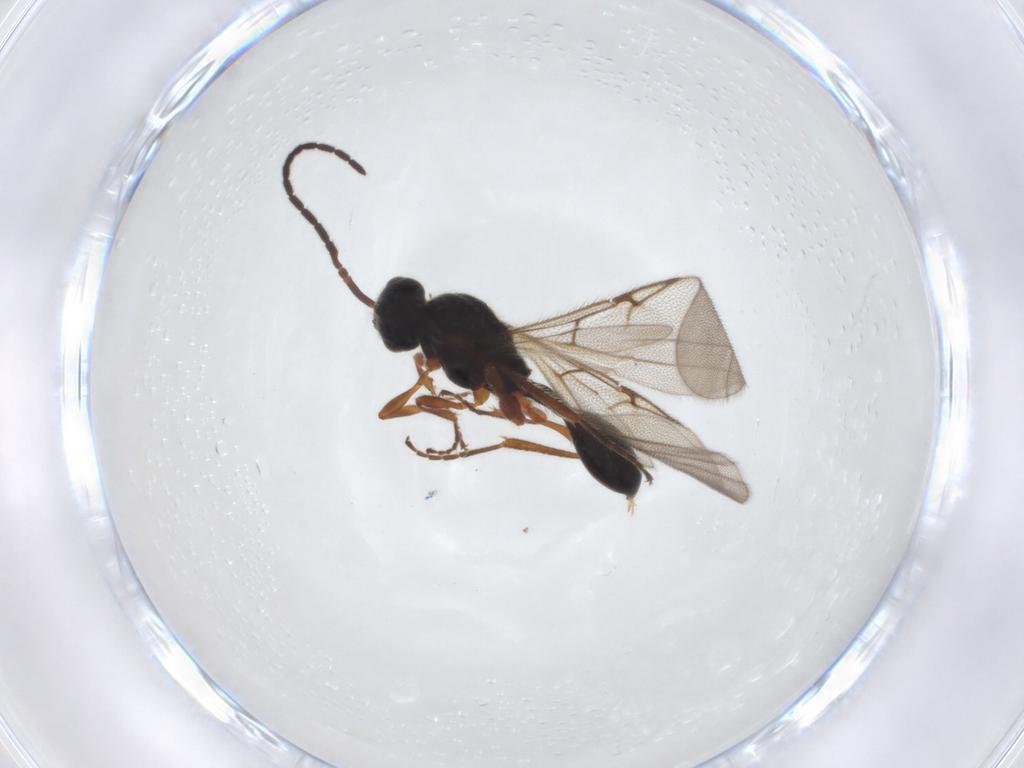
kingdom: Animalia
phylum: Arthropoda
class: Insecta
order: Hymenoptera
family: Diapriidae
